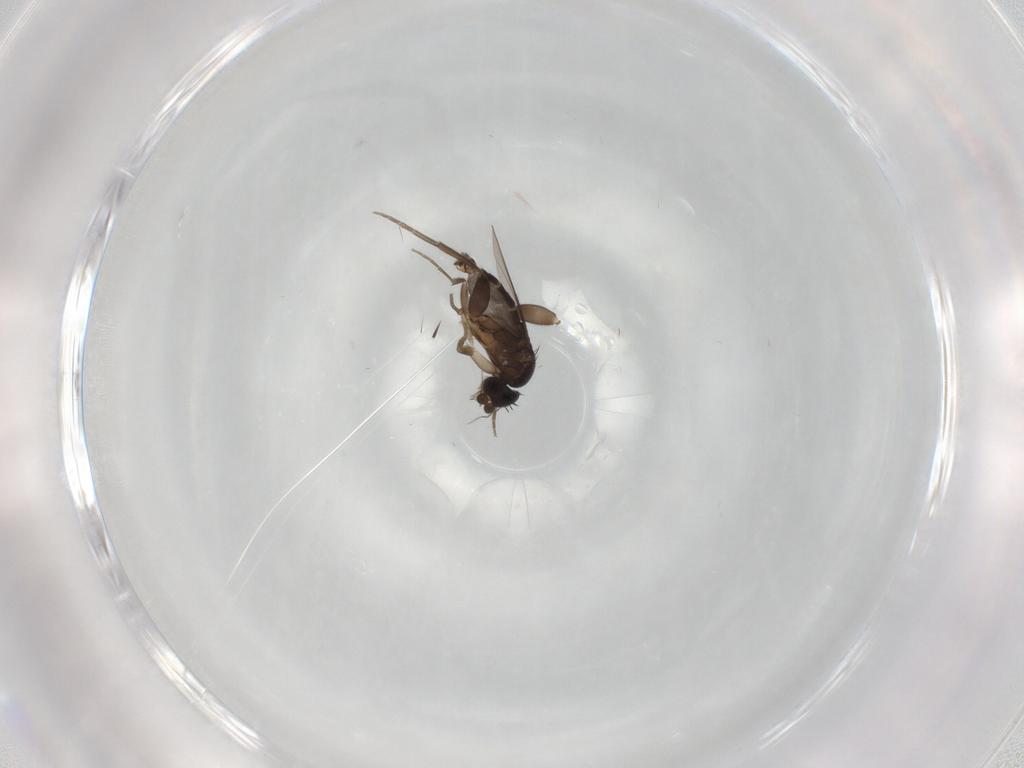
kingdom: Animalia
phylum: Arthropoda
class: Insecta
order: Diptera
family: Phoridae
